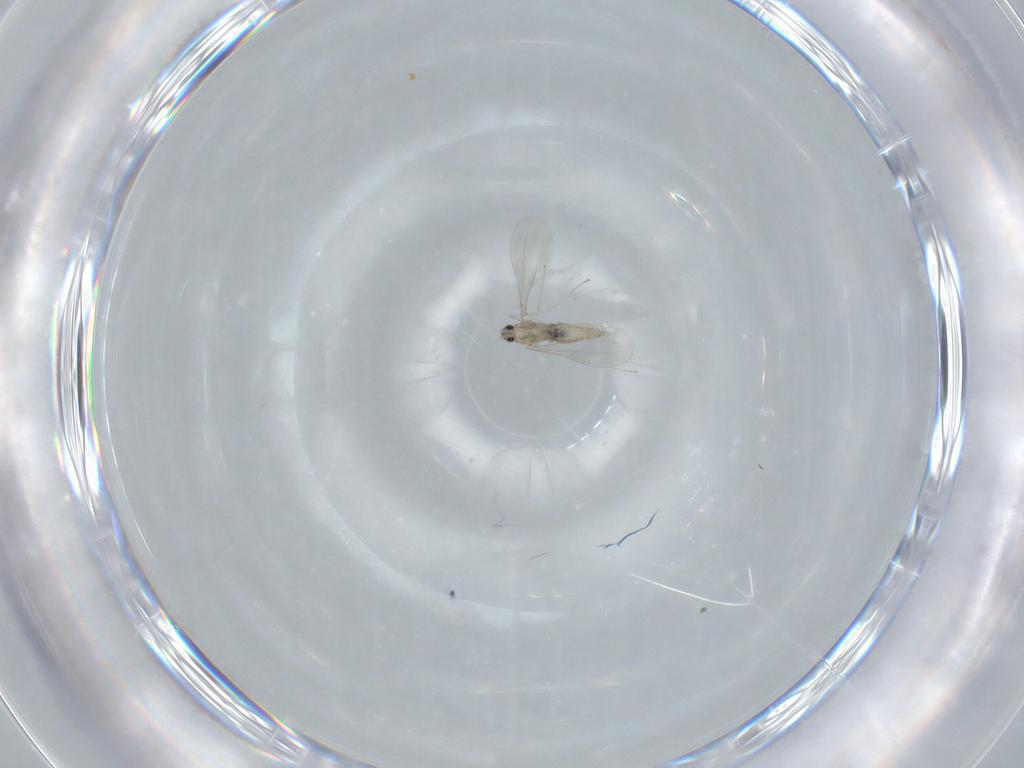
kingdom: Animalia
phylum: Arthropoda
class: Insecta
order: Diptera
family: Cecidomyiidae
